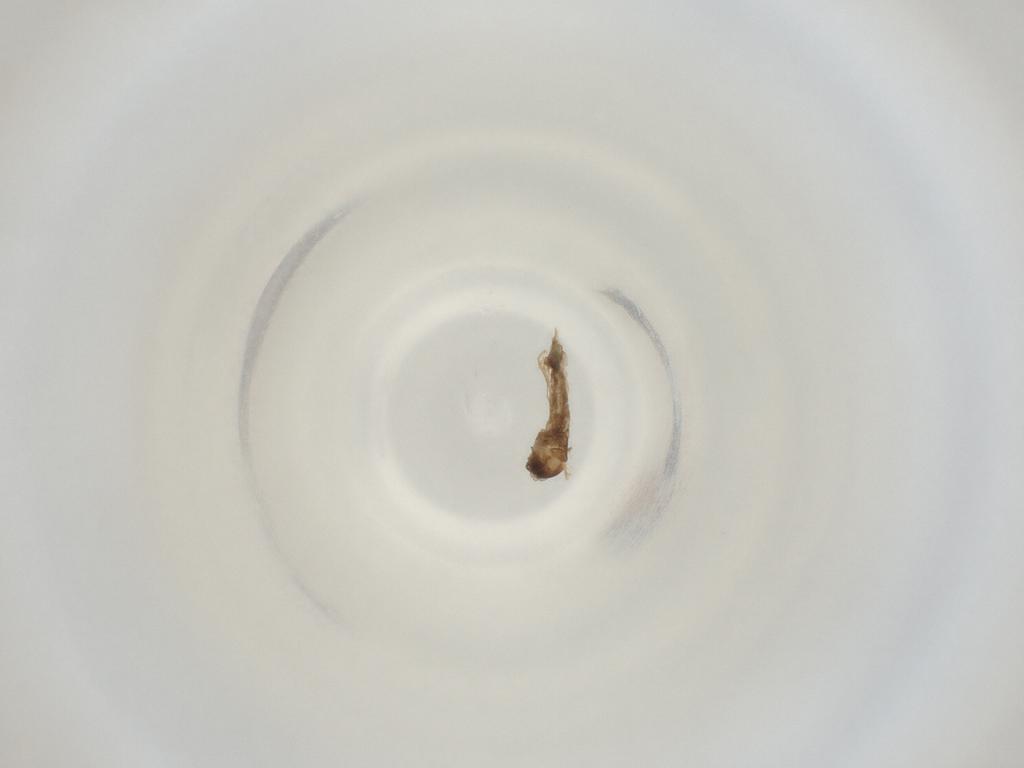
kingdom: Animalia
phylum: Arthropoda
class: Insecta
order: Diptera
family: Cecidomyiidae
